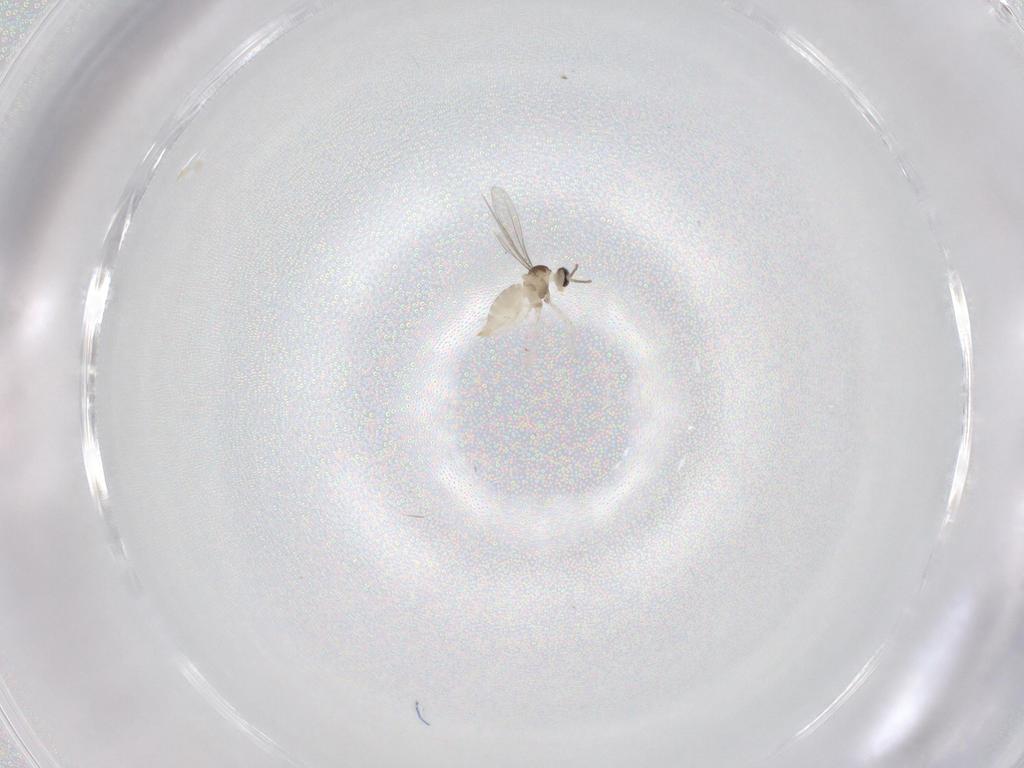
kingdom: Animalia
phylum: Arthropoda
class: Insecta
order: Diptera
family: Cecidomyiidae
